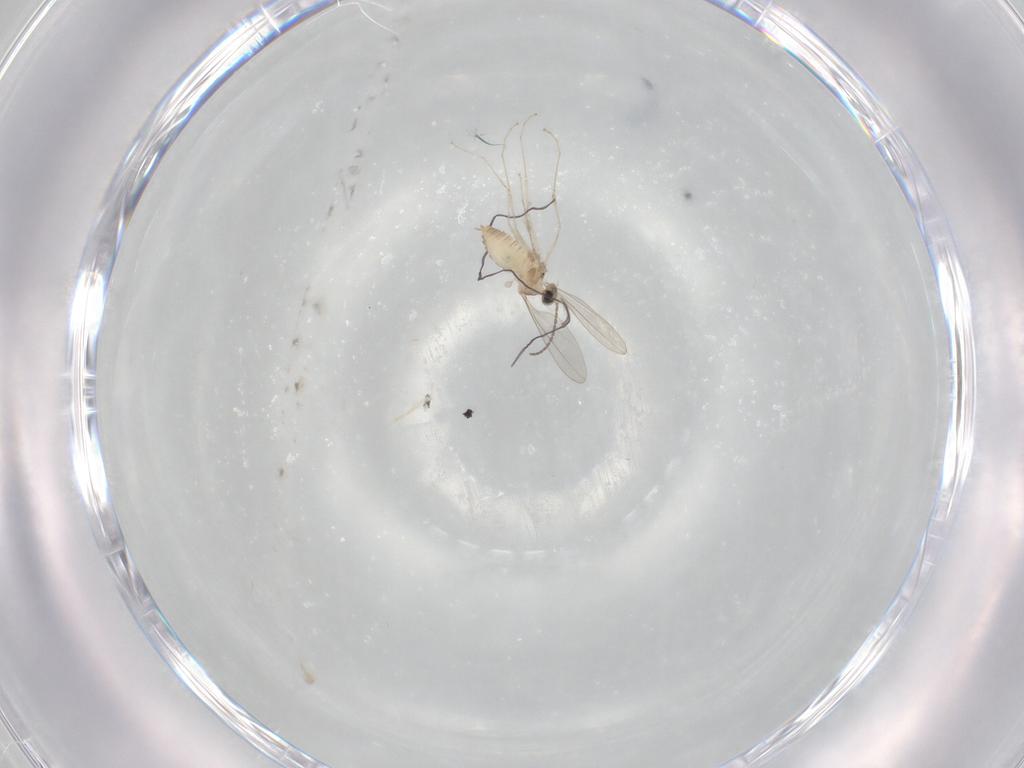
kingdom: Animalia
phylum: Arthropoda
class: Insecta
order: Diptera
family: Cecidomyiidae
